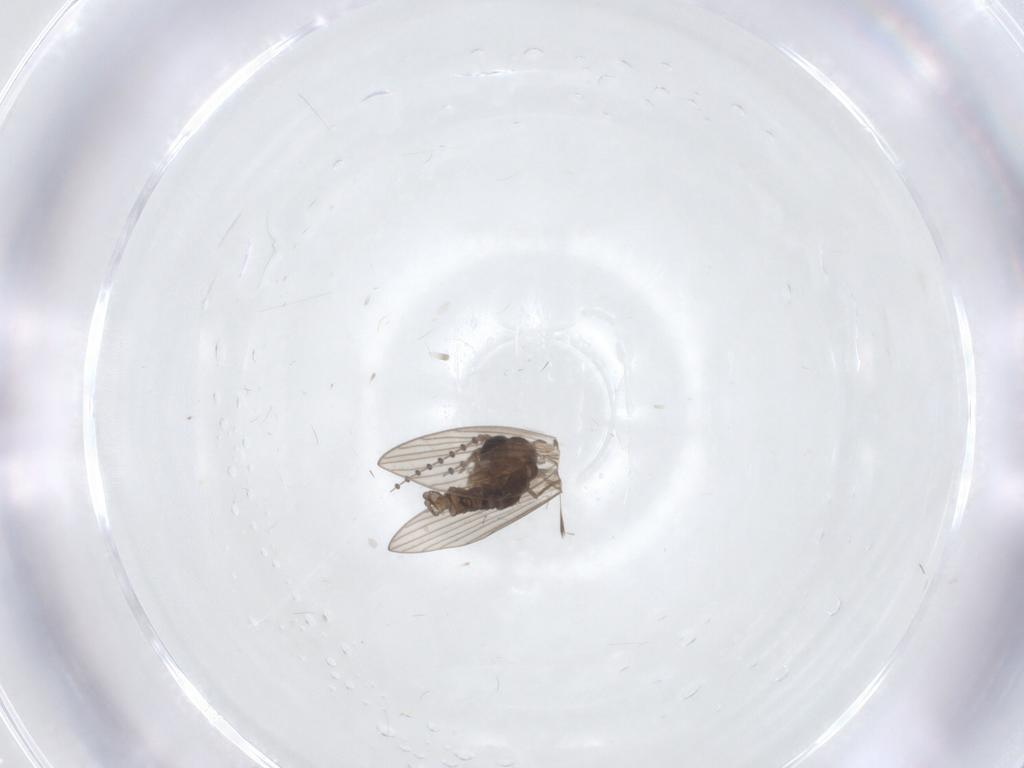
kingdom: Animalia
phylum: Arthropoda
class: Insecta
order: Diptera
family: Psychodidae
